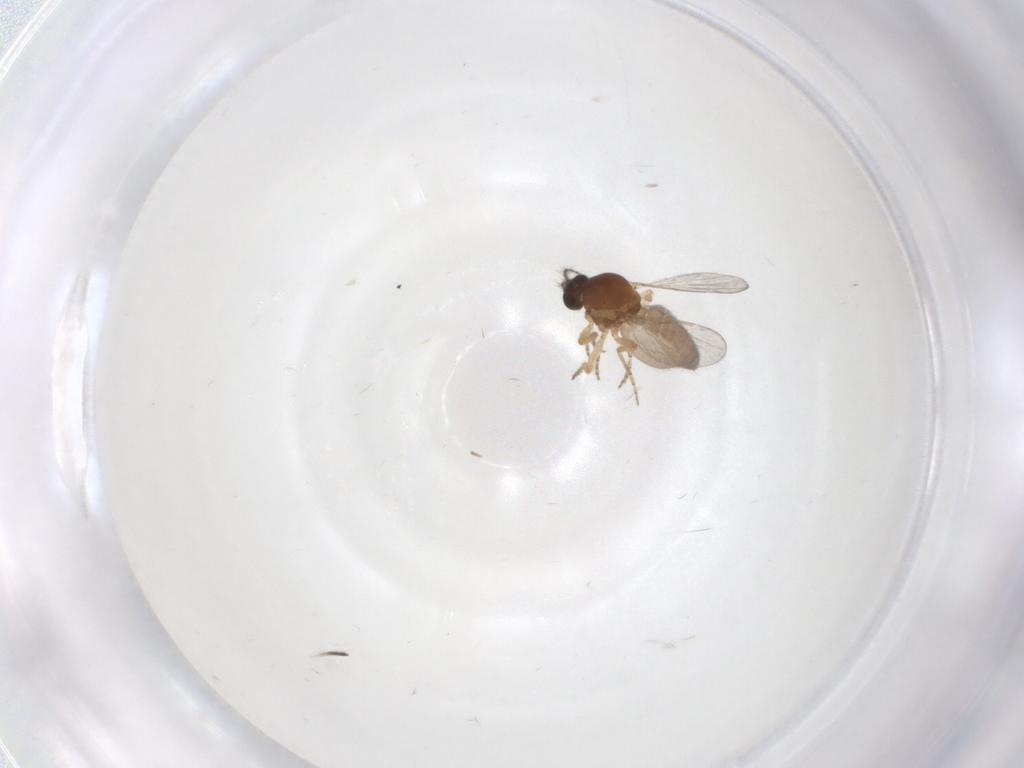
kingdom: Animalia
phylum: Arthropoda
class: Insecta
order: Diptera
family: Ceratopogonidae
